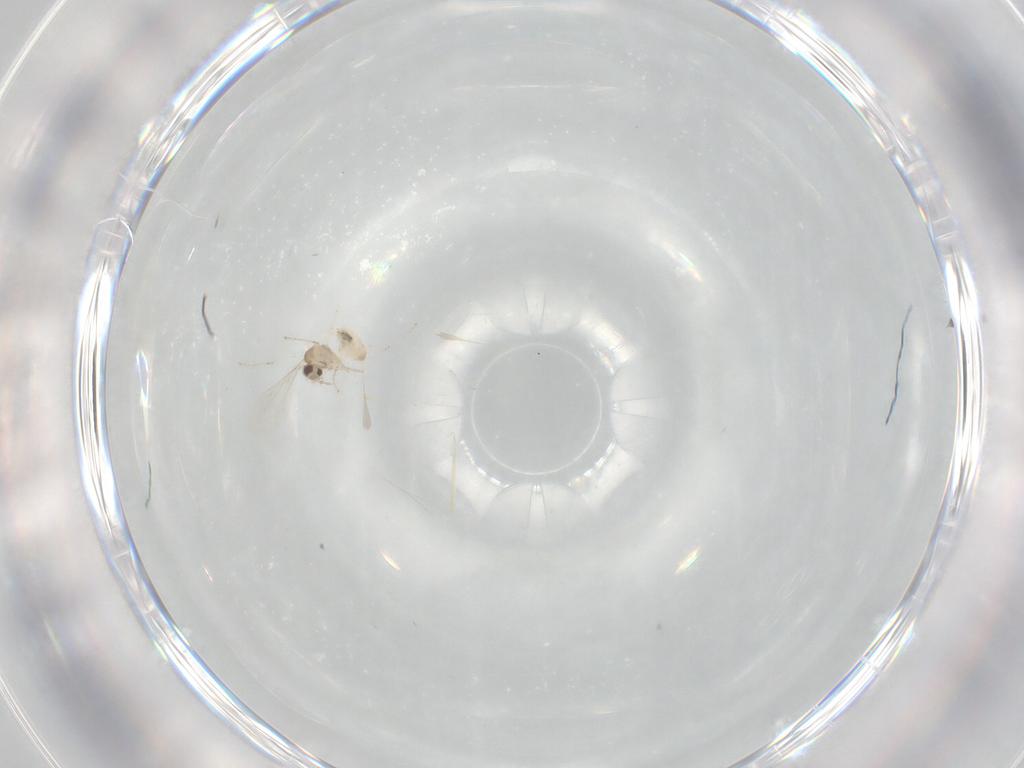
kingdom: Animalia
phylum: Arthropoda
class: Insecta
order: Diptera
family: Cecidomyiidae
